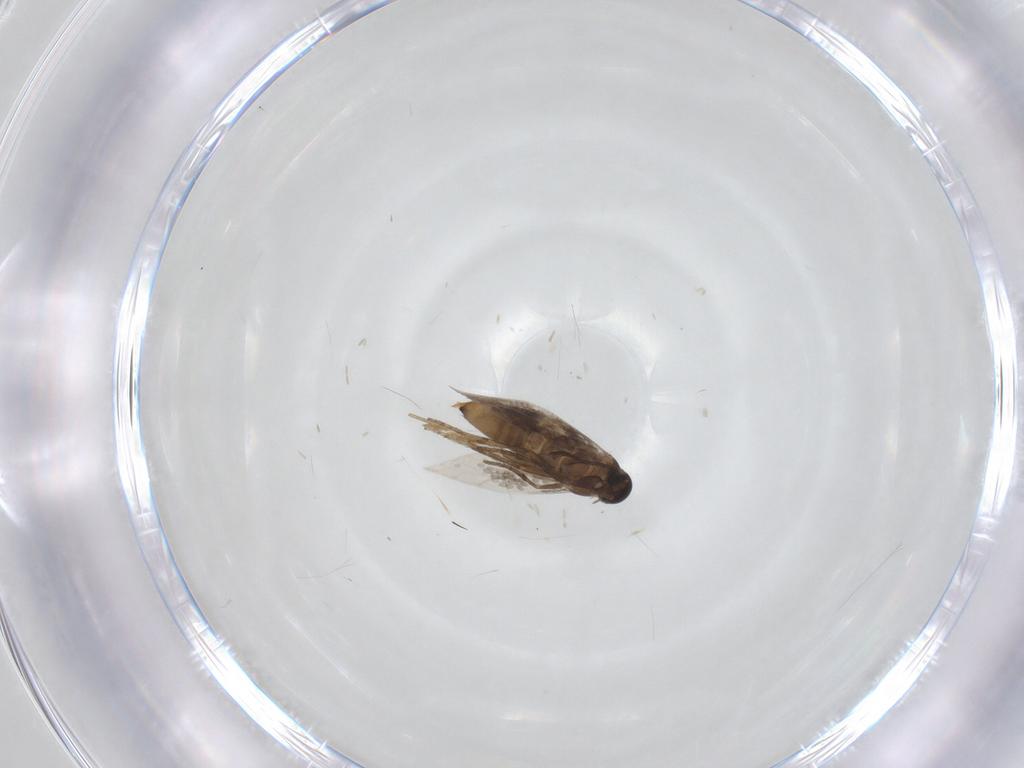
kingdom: Animalia
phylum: Arthropoda
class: Insecta
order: Lepidoptera
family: Heliozelidae
